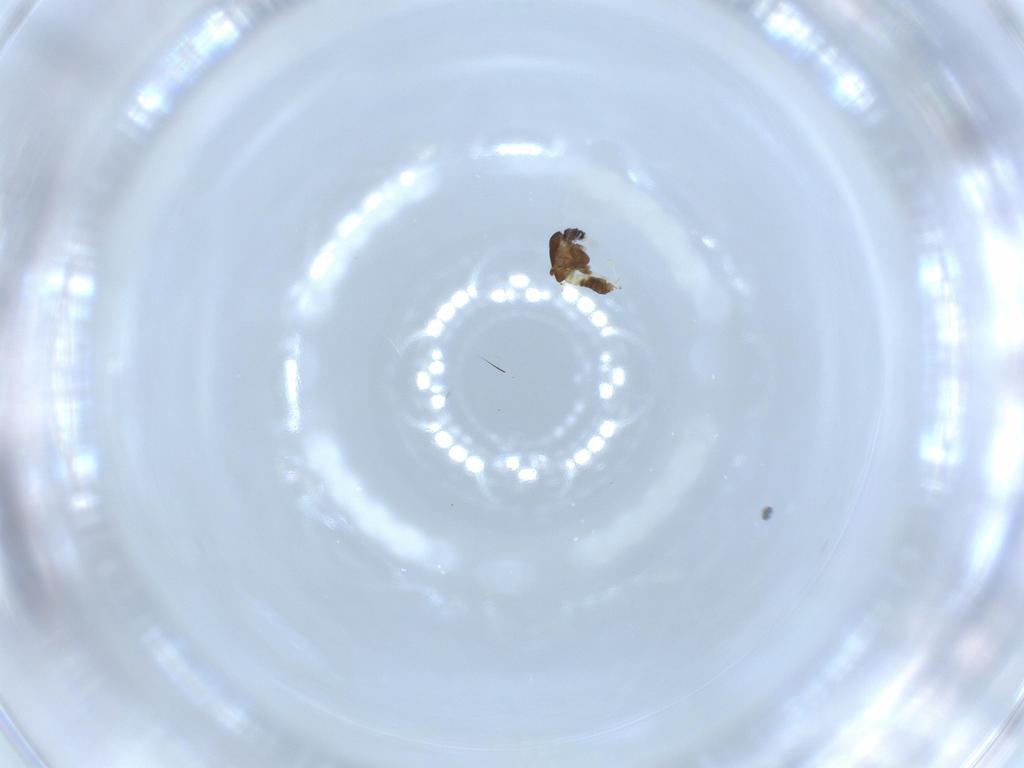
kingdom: Animalia
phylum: Arthropoda
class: Insecta
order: Diptera
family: Chironomidae
